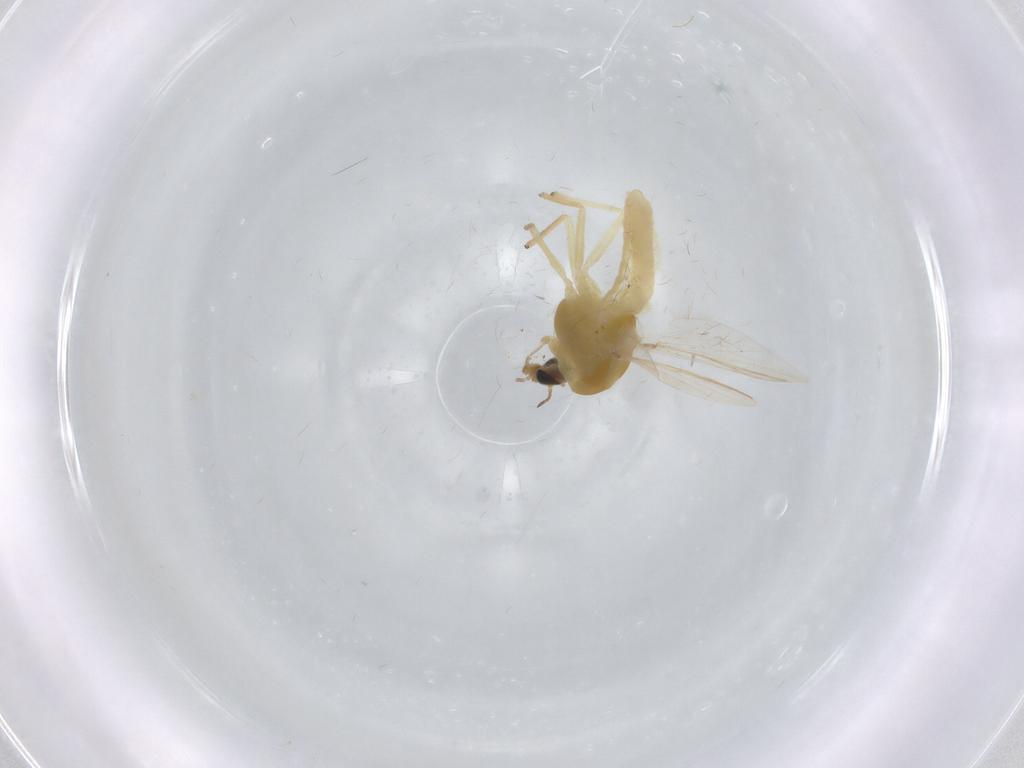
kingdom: Animalia
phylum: Arthropoda
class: Insecta
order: Diptera
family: Chironomidae
